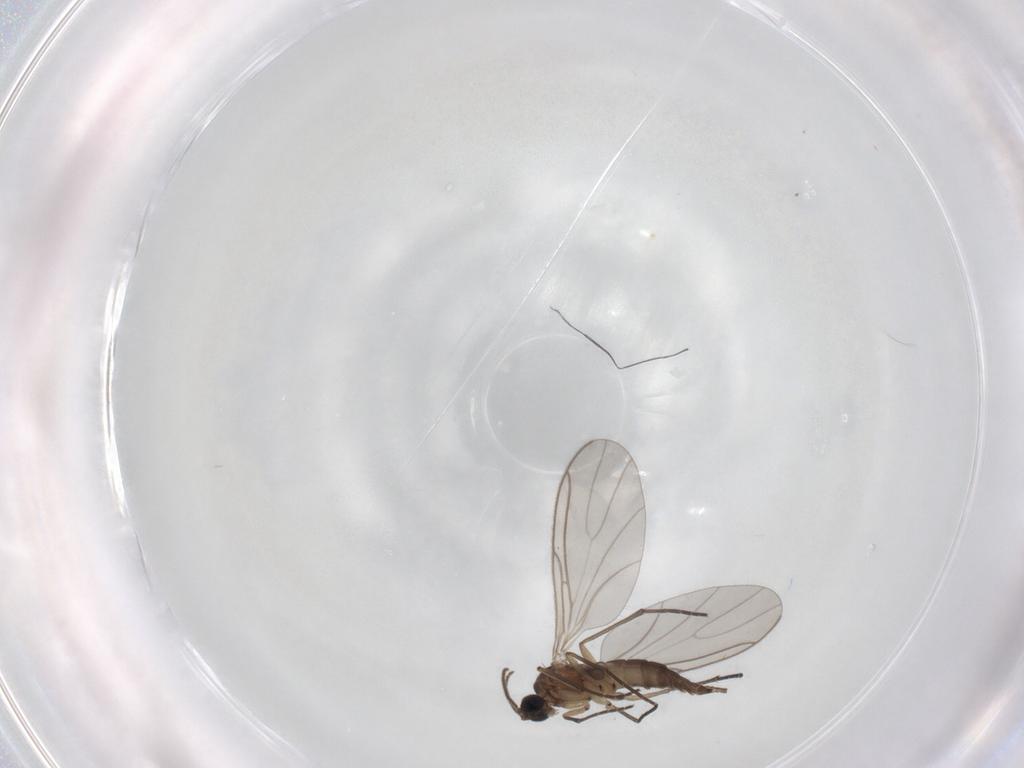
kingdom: Animalia
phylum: Arthropoda
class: Insecta
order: Diptera
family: Sciaridae
